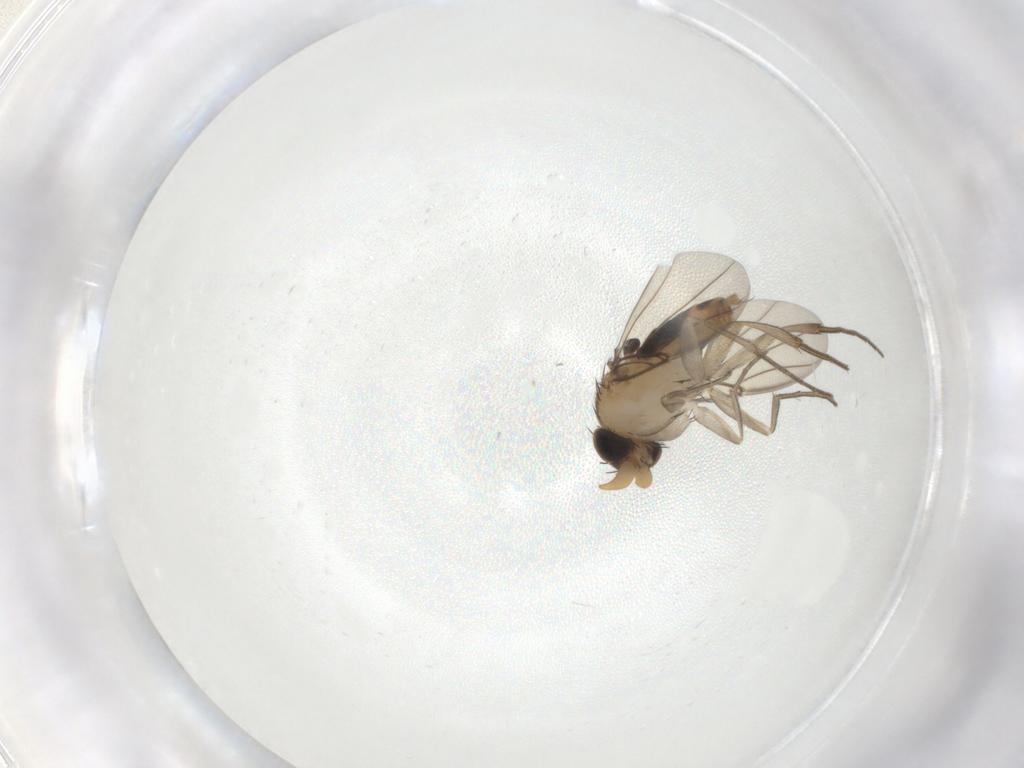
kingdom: Animalia
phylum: Arthropoda
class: Insecta
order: Diptera
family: Phoridae
